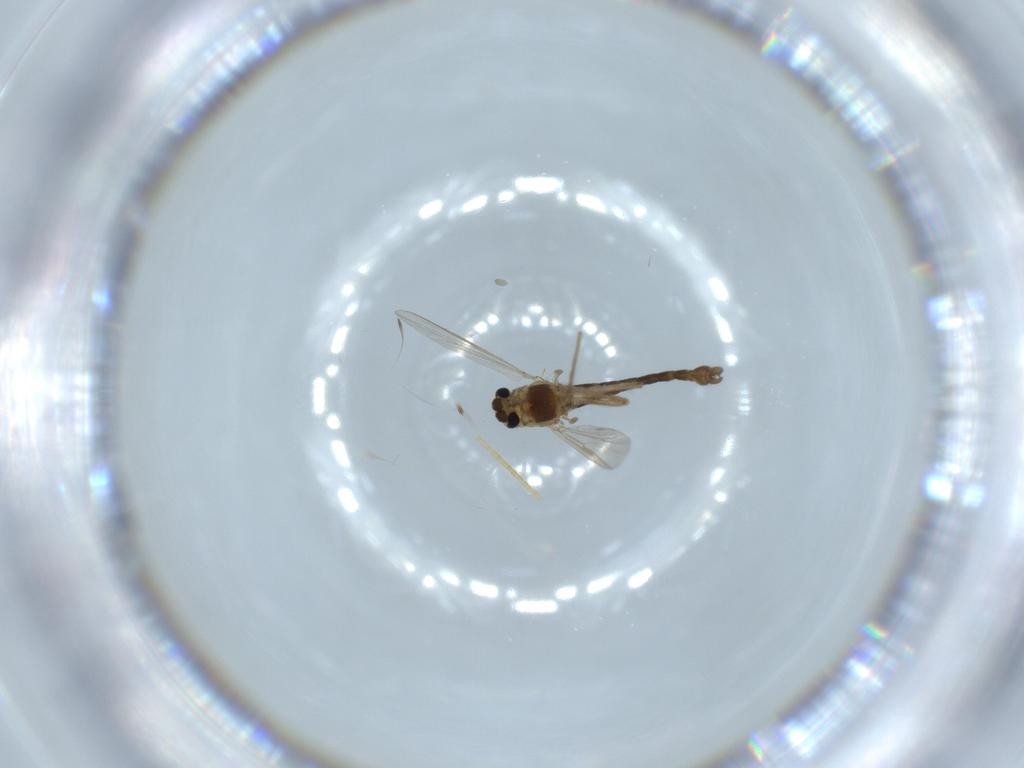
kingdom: Animalia
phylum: Arthropoda
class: Insecta
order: Diptera
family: Chironomidae
